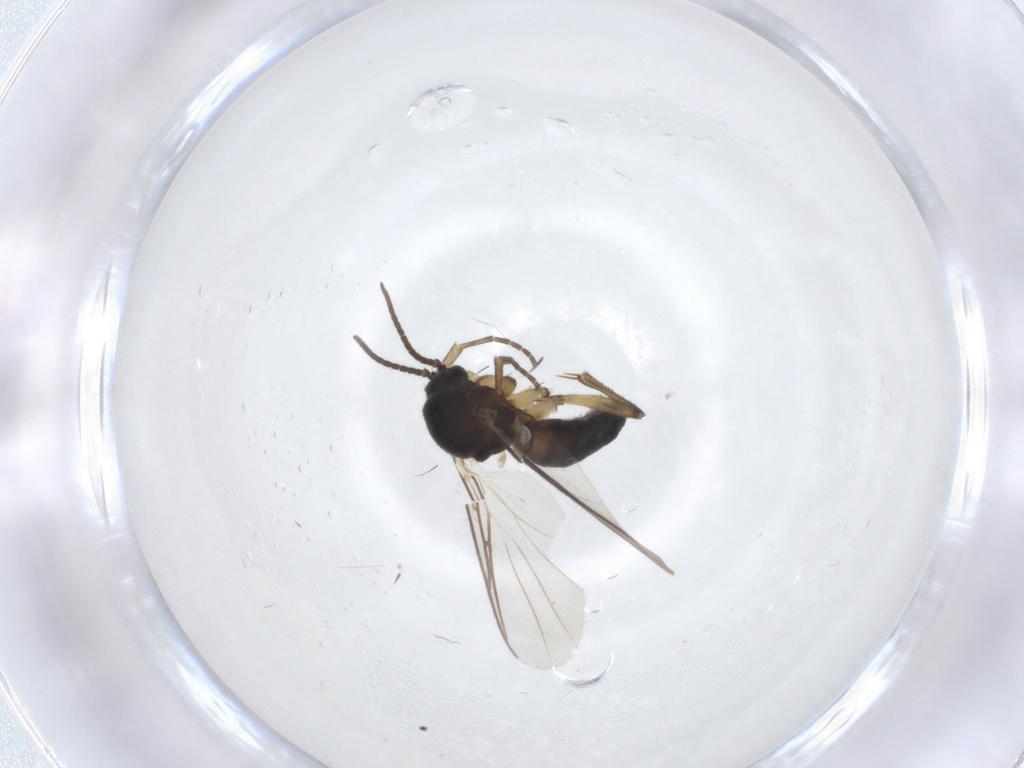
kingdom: Animalia
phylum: Arthropoda
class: Insecta
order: Diptera
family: Mycetophilidae
